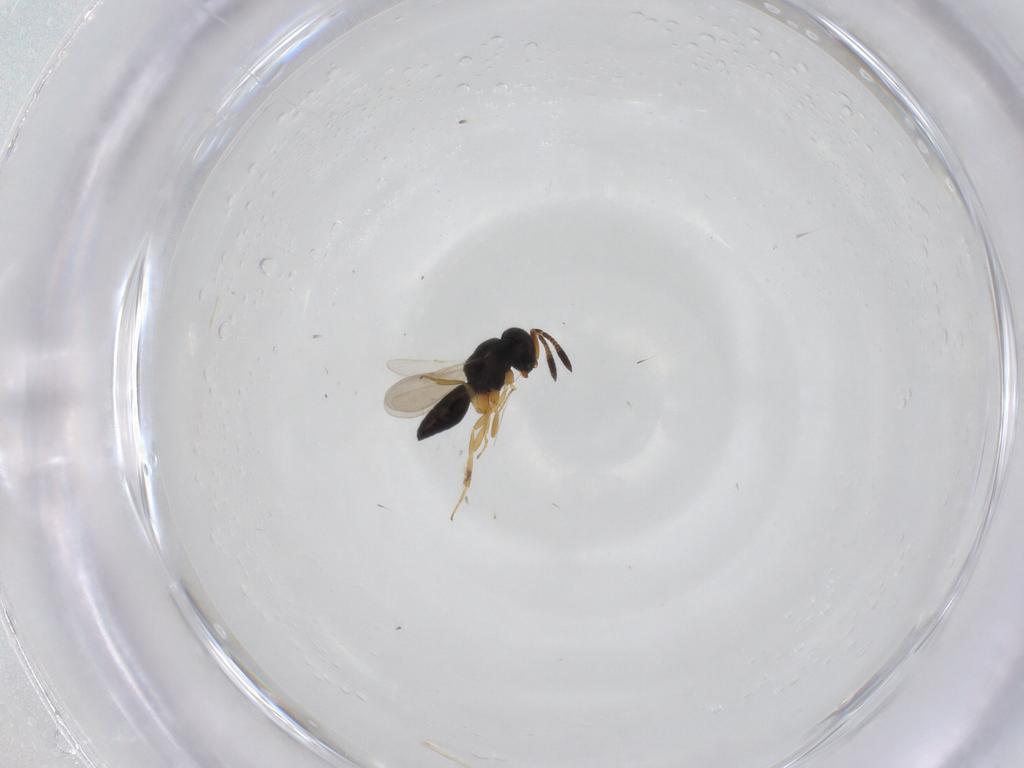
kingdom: Animalia
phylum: Arthropoda
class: Insecta
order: Hymenoptera
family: Scelionidae
